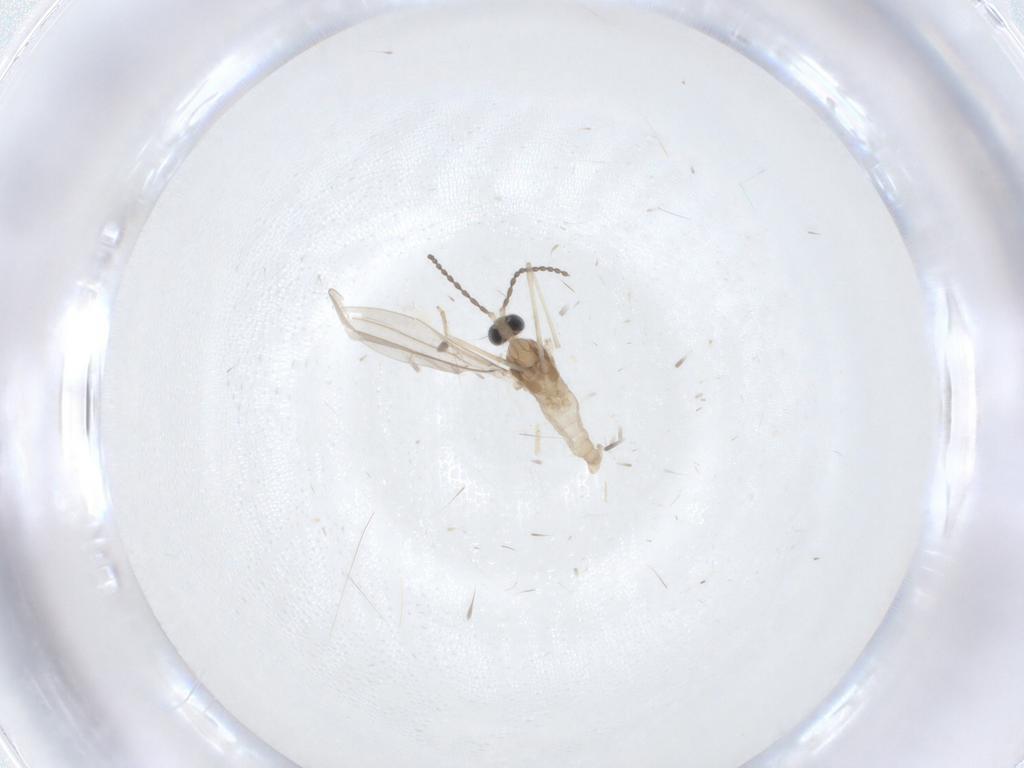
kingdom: Animalia
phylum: Arthropoda
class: Insecta
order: Diptera
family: Cecidomyiidae
